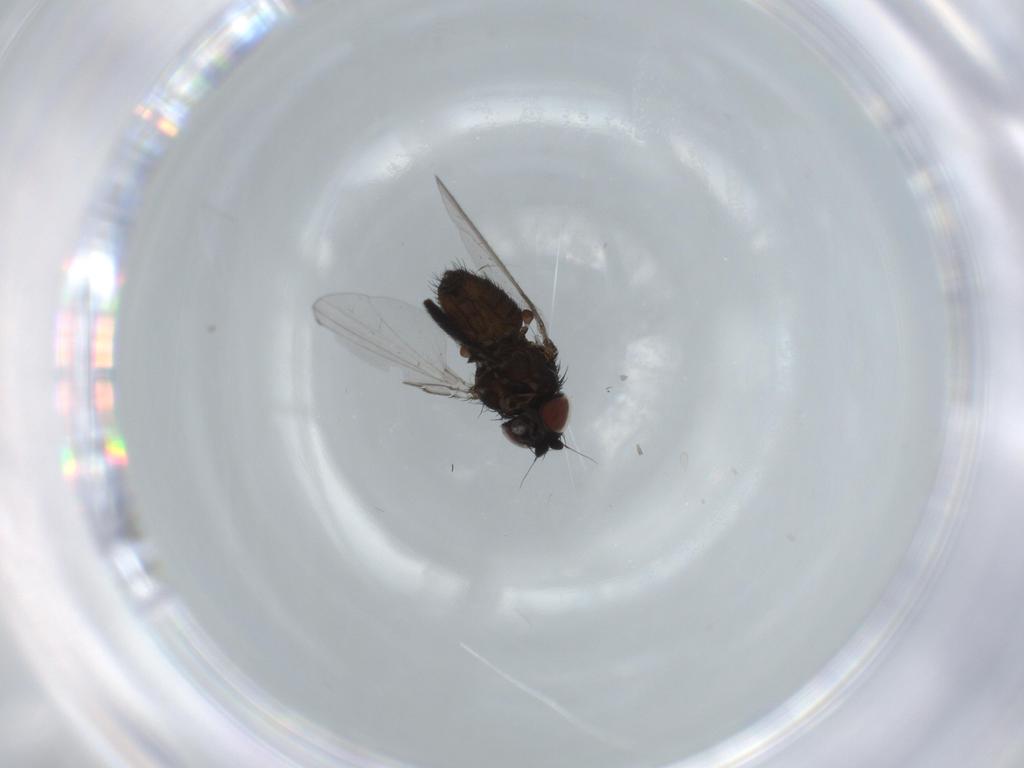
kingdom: Animalia
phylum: Arthropoda
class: Insecta
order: Diptera
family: Milichiidae
